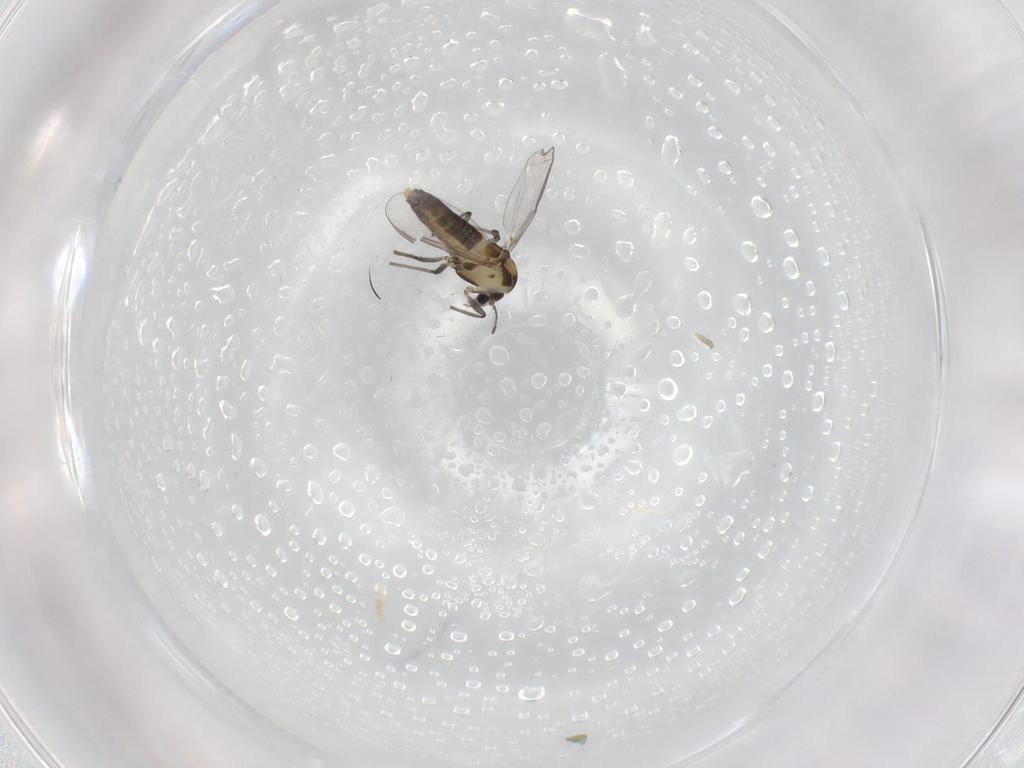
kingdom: Animalia
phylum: Arthropoda
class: Insecta
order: Diptera
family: Chironomidae
